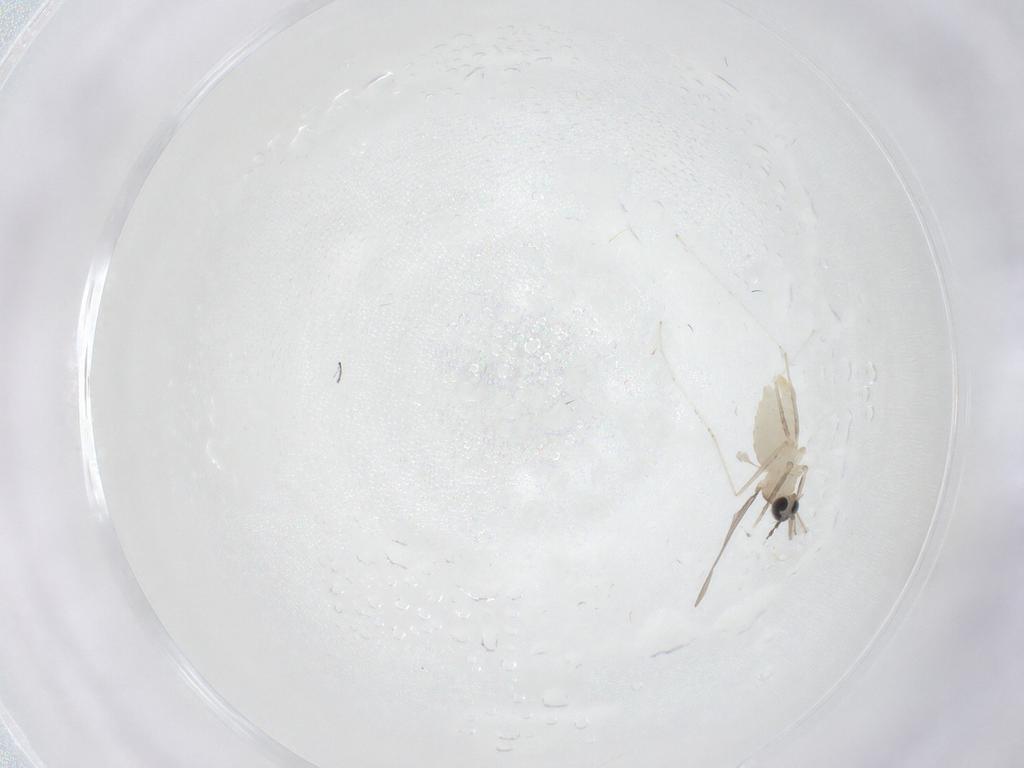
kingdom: Animalia
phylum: Arthropoda
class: Insecta
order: Diptera
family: Cecidomyiidae
